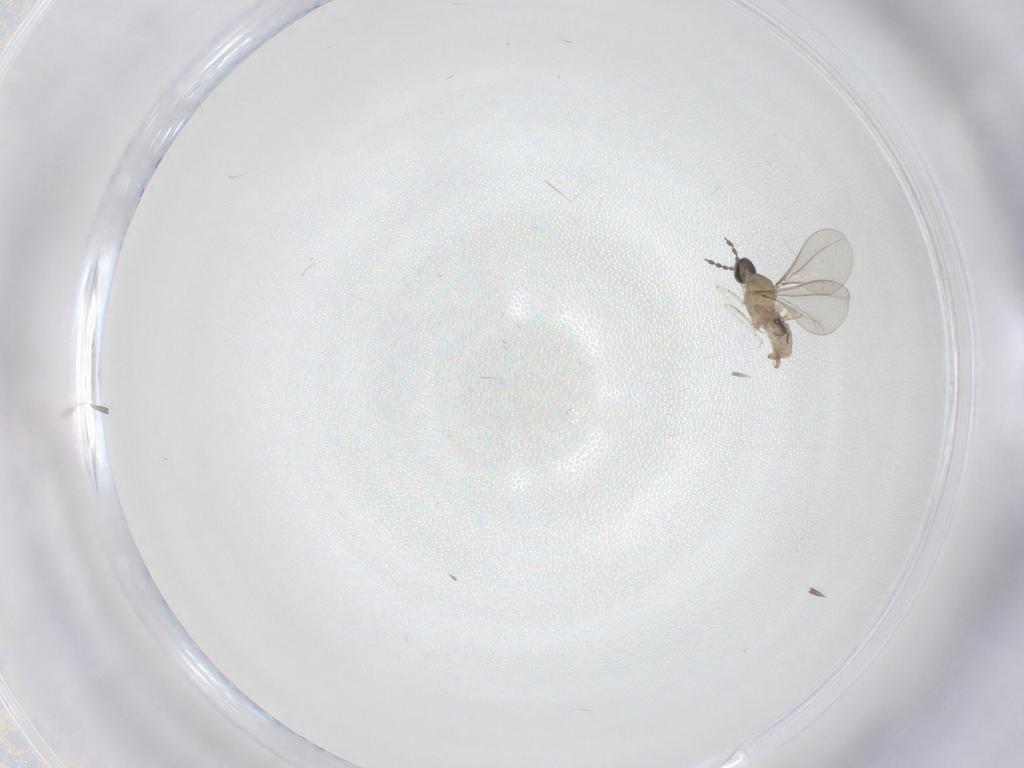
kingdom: Animalia
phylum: Arthropoda
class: Insecta
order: Diptera
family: Cecidomyiidae
